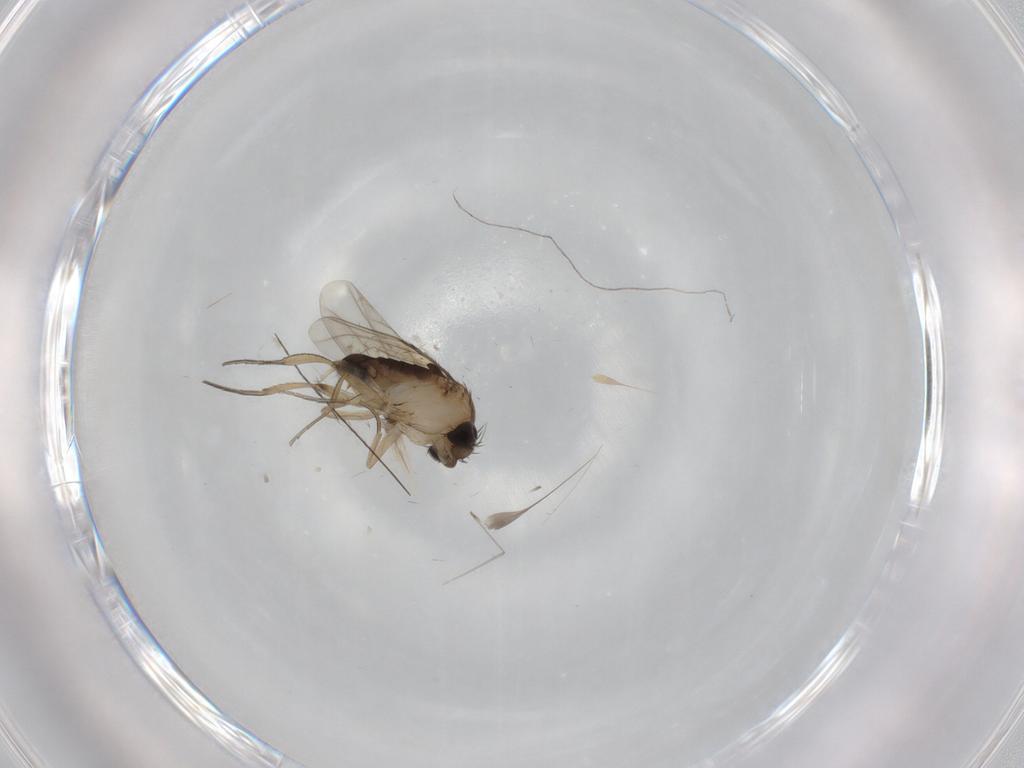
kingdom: Animalia
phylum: Arthropoda
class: Insecta
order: Diptera
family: Phoridae
